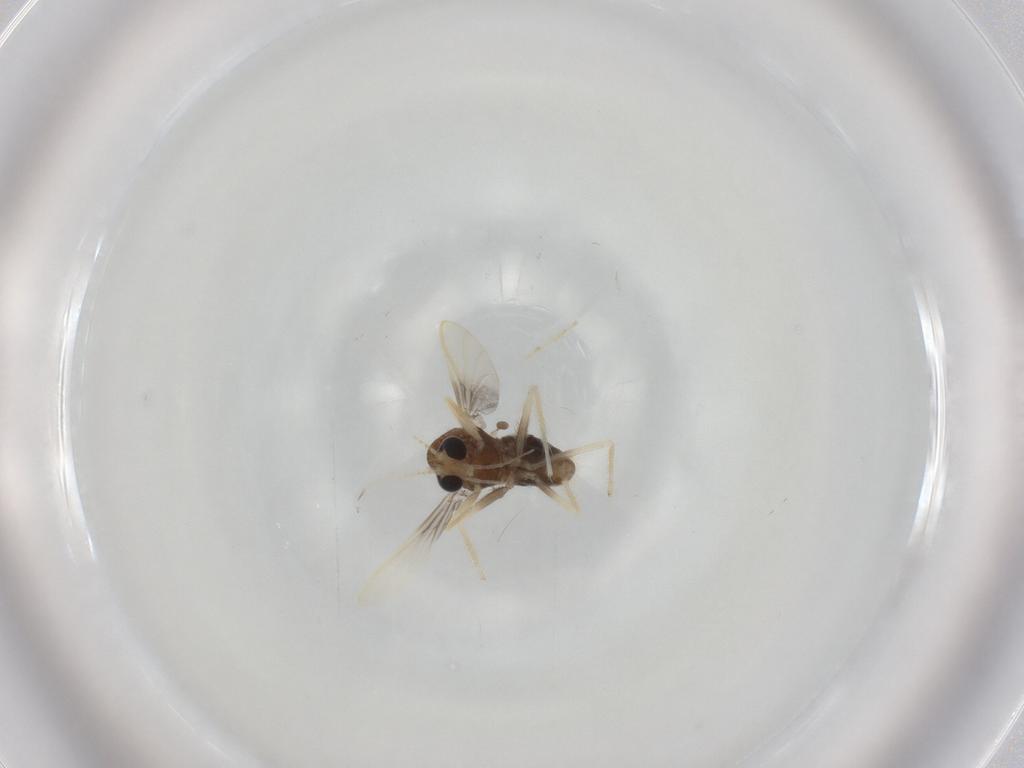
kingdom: Animalia
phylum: Arthropoda
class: Insecta
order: Diptera
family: Chironomidae
